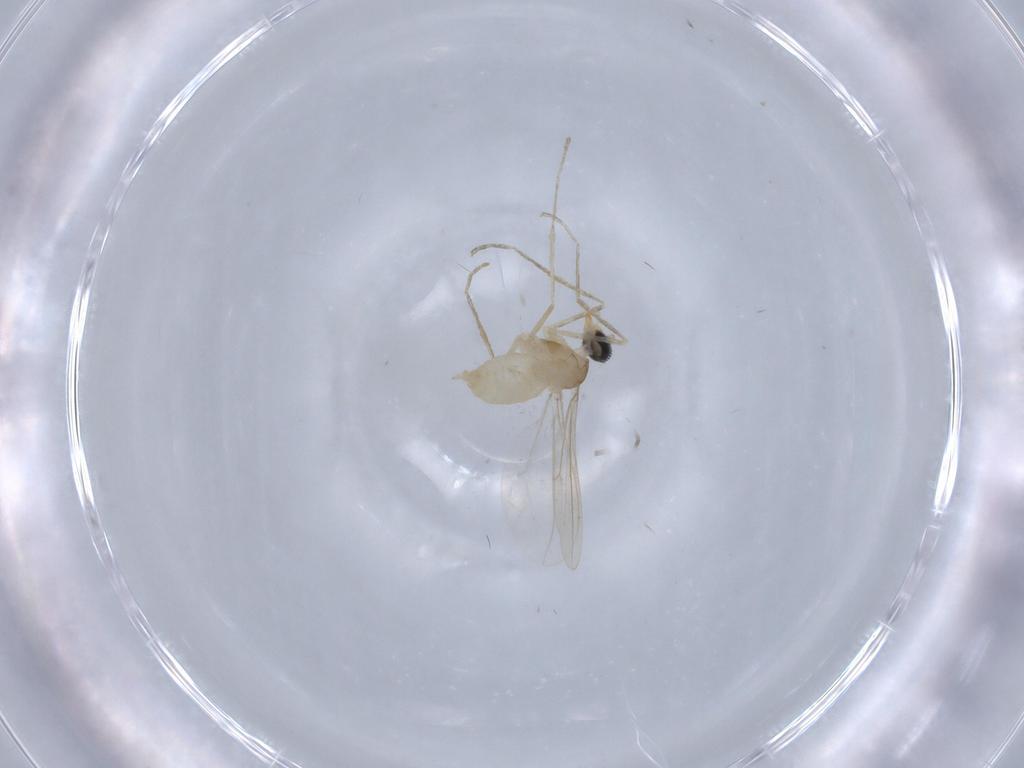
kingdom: Animalia
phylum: Arthropoda
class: Insecta
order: Diptera
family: Cecidomyiidae
